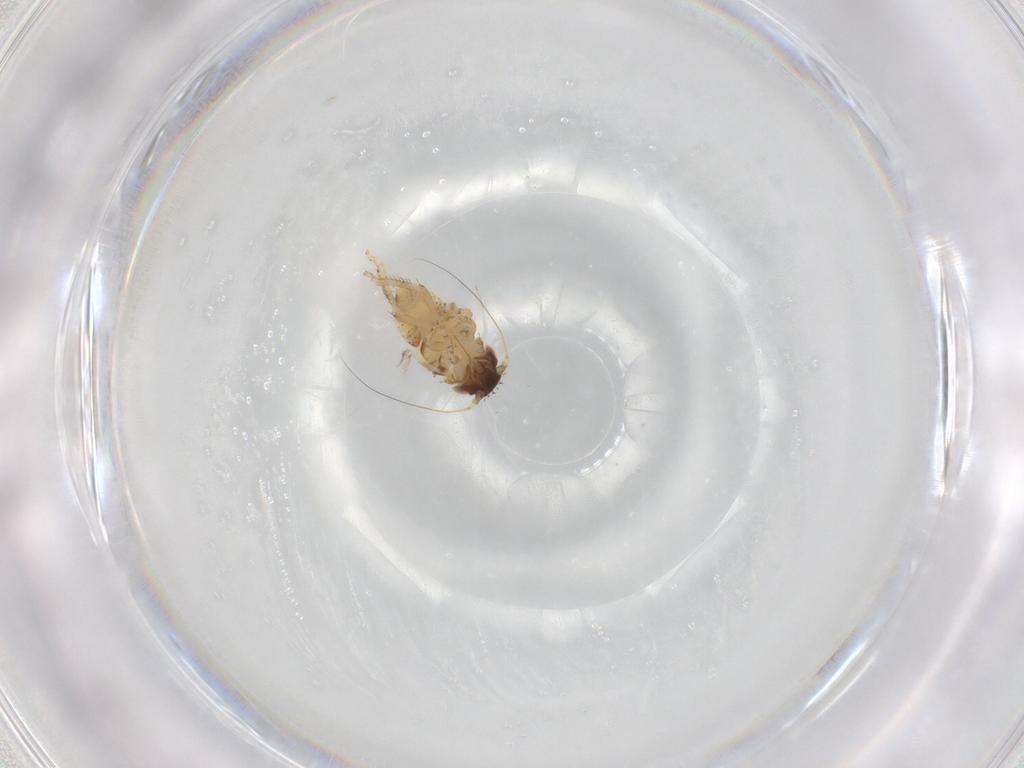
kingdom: Animalia
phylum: Arthropoda
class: Insecta
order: Hemiptera
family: Cicadellidae
